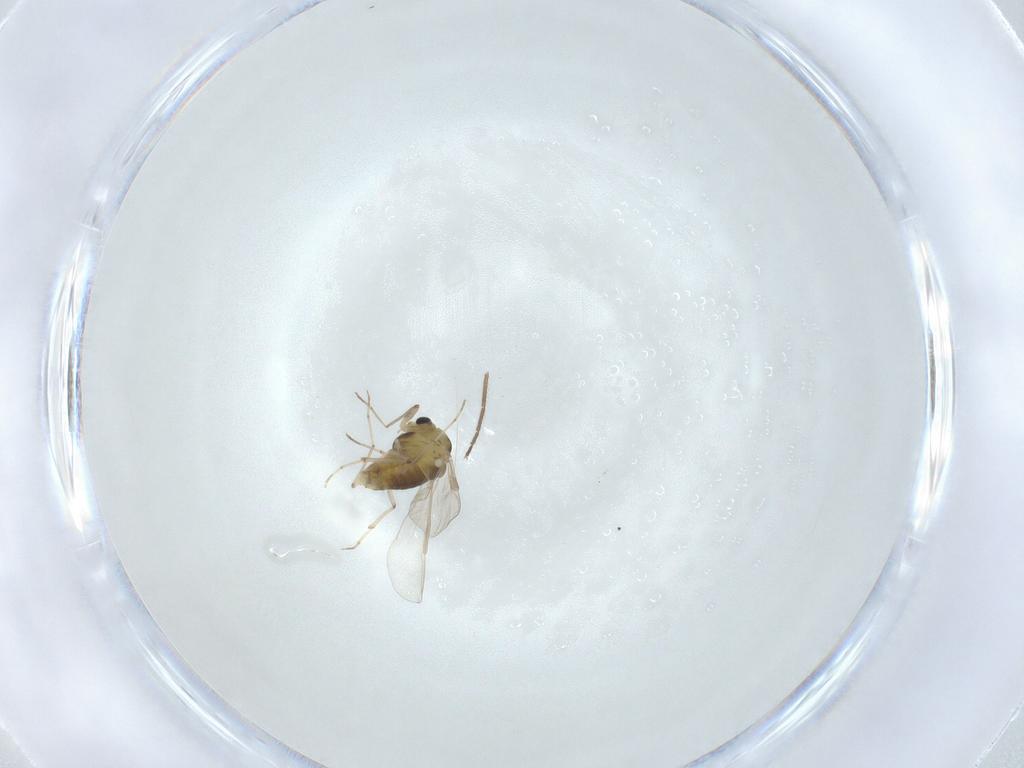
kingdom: Animalia
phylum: Arthropoda
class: Insecta
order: Diptera
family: Chironomidae
